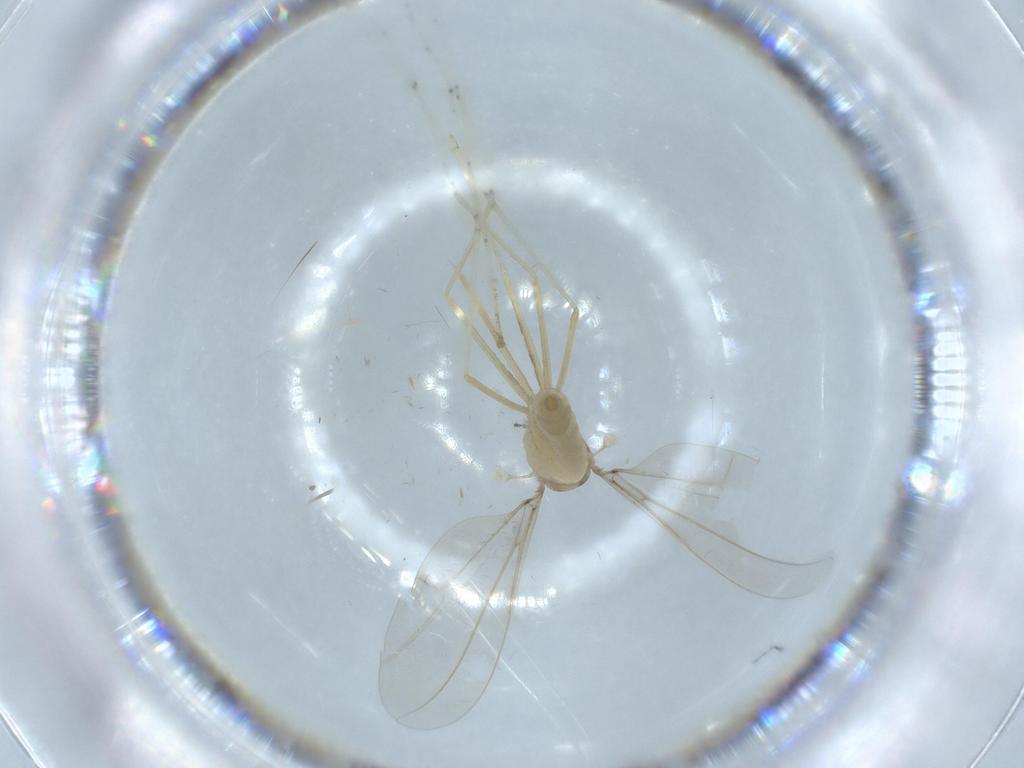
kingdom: Animalia
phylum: Arthropoda
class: Insecta
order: Diptera
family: Cecidomyiidae
